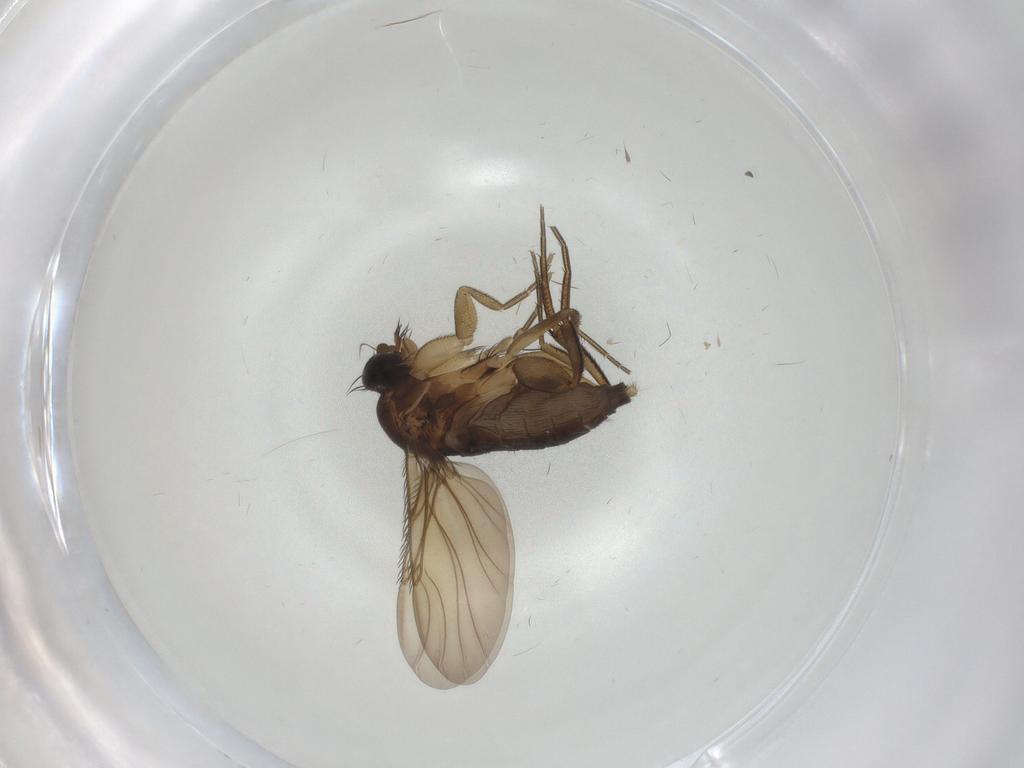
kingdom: Animalia
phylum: Arthropoda
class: Insecta
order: Diptera
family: Phoridae
